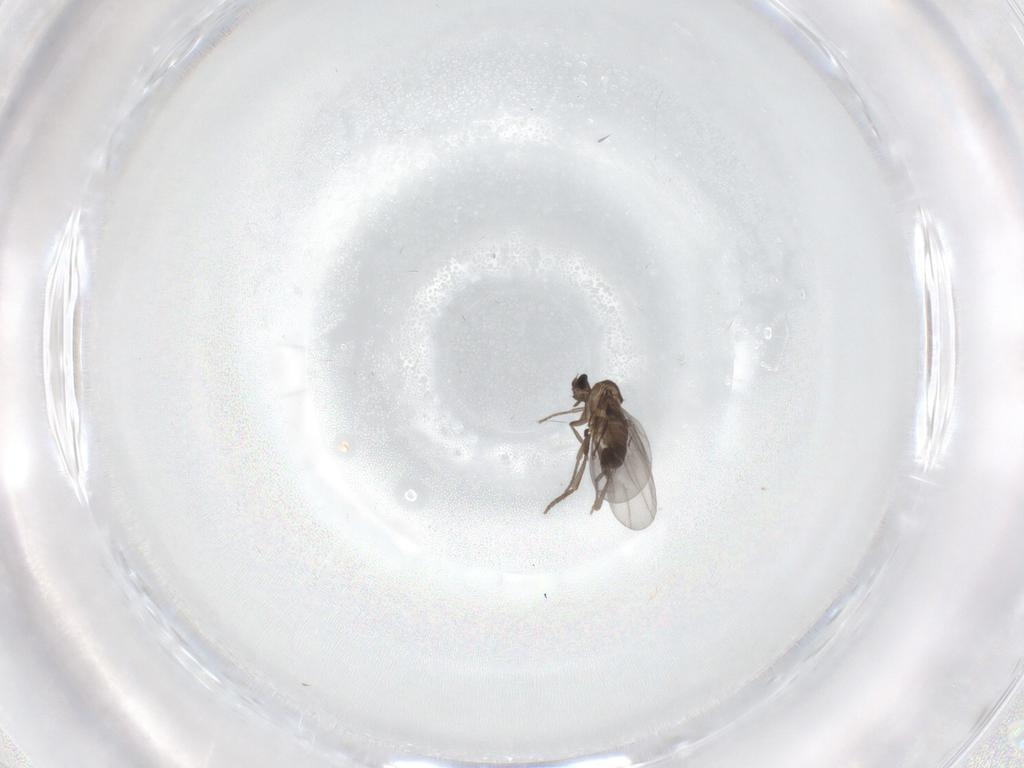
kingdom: Animalia
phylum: Arthropoda
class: Insecta
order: Diptera
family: Phoridae
